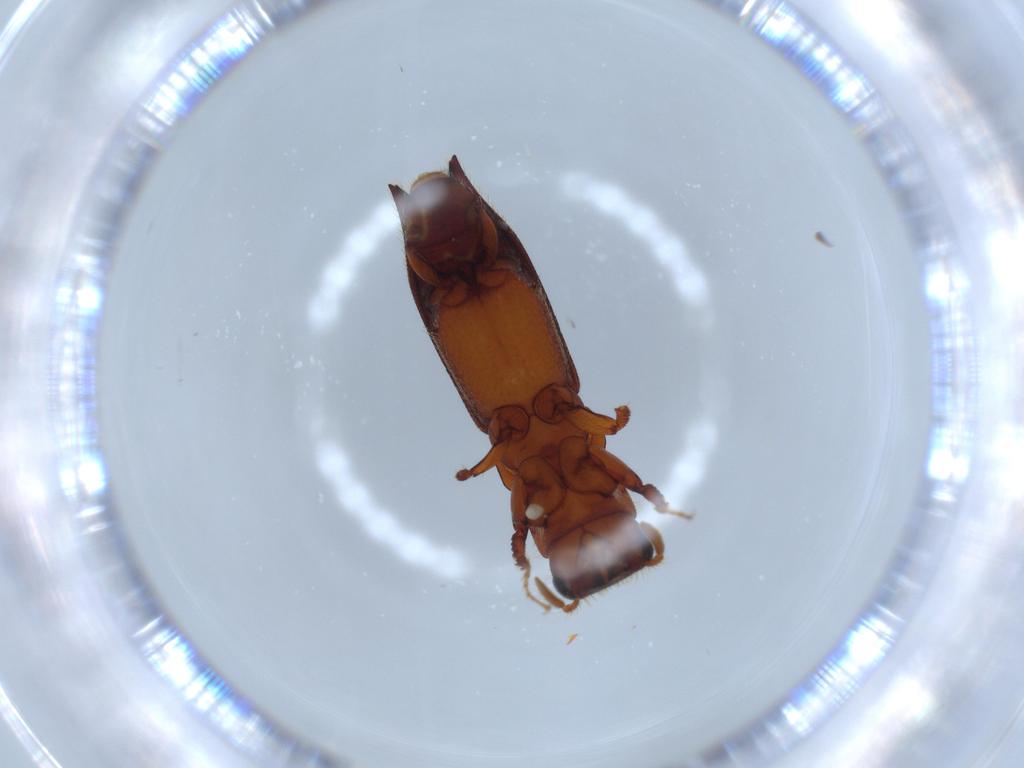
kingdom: Animalia
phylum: Arthropoda
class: Insecta
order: Coleoptera
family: Curculionidae
